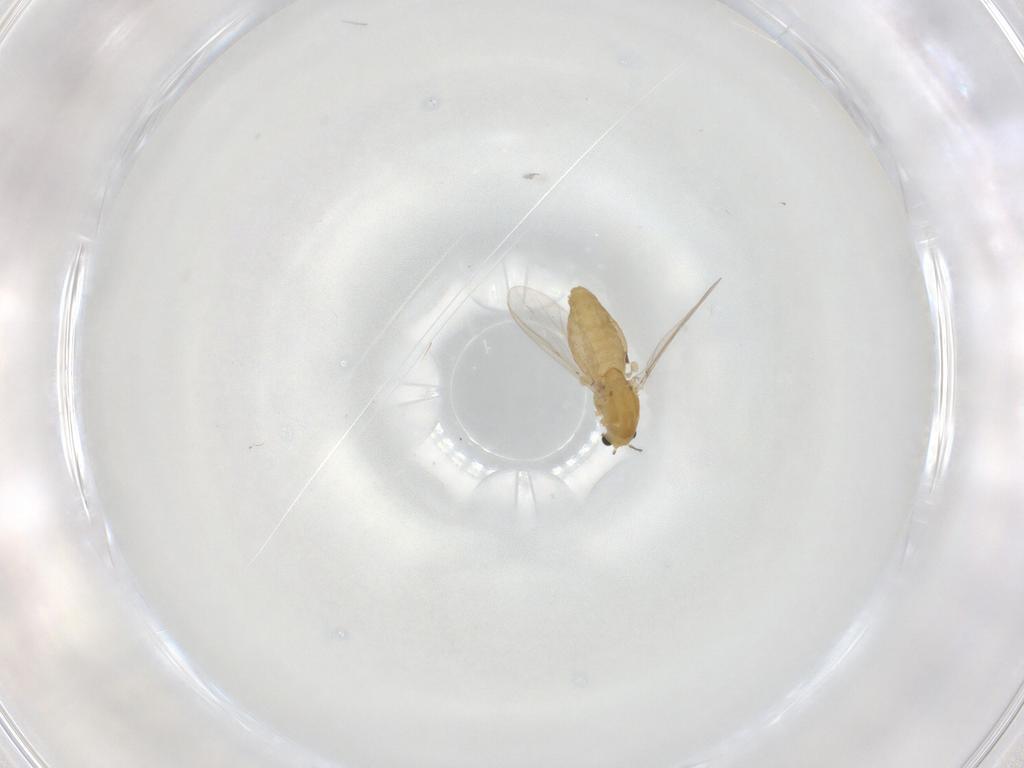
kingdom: Animalia
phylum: Arthropoda
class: Insecta
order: Diptera
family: Chironomidae
